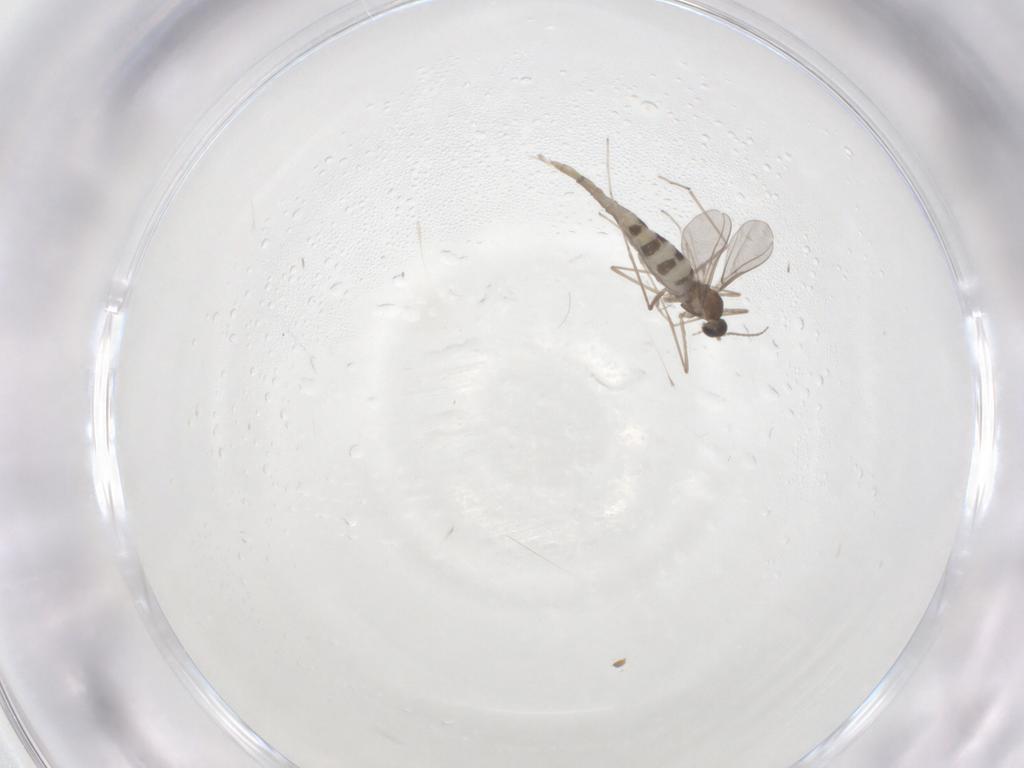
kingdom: Animalia
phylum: Arthropoda
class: Insecta
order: Diptera
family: Cecidomyiidae
